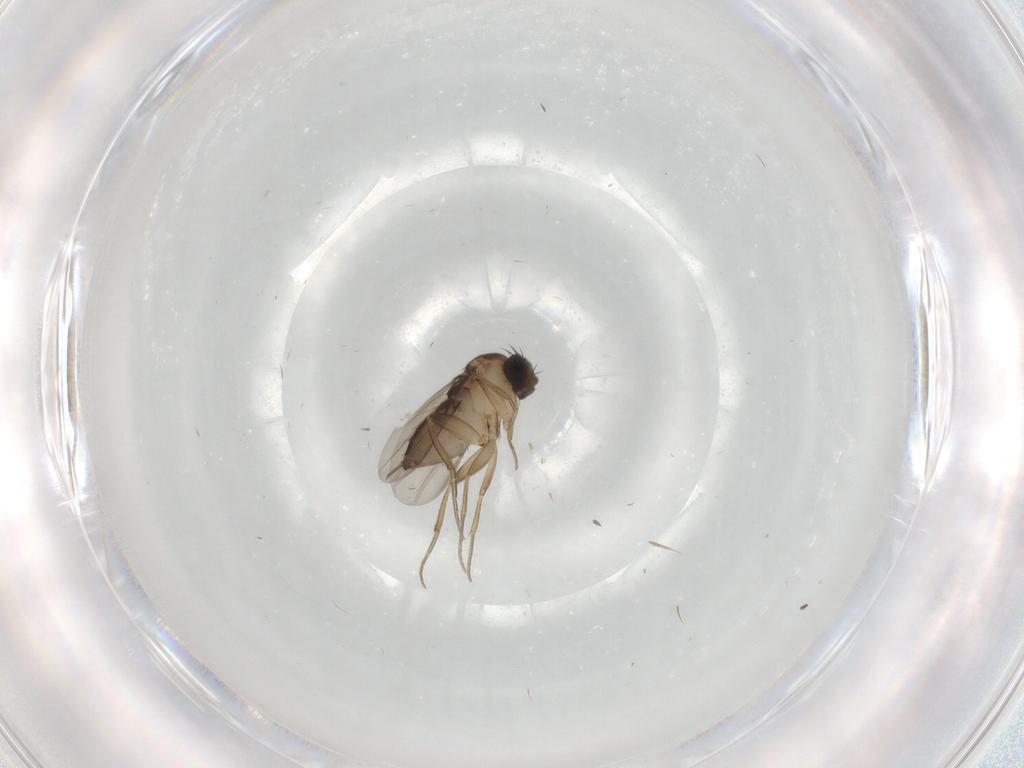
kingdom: Animalia
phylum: Arthropoda
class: Insecta
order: Diptera
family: Phoridae
